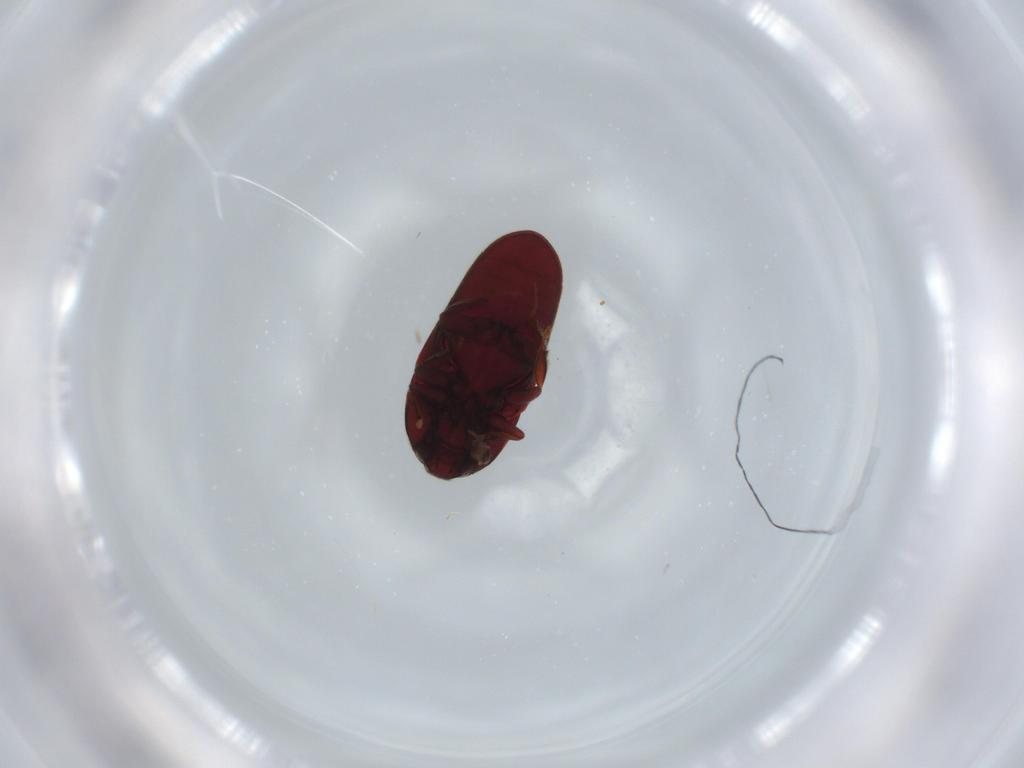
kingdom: Animalia
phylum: Arthropoda
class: Insecta
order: Coleoptera
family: Throscidae
